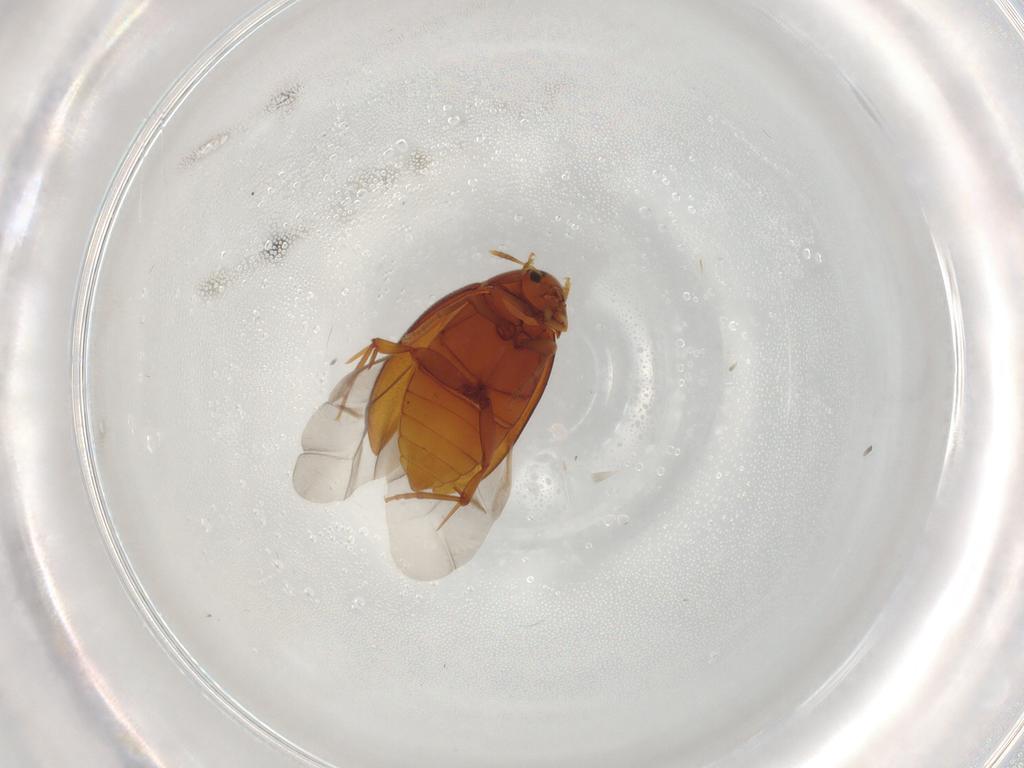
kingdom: Animalia
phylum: Arthropoda
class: Insecta
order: Coleoptera
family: Melandryidae
